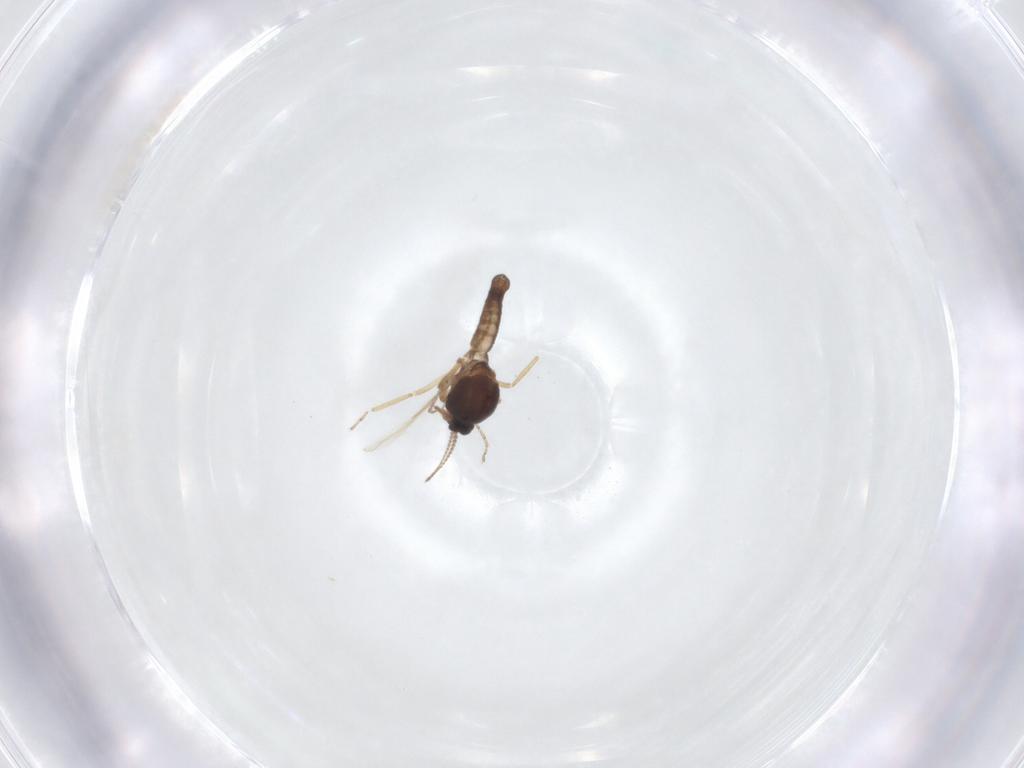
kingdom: Animalia
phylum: Arthropoda
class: Insecta
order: Diptera
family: Ceratopogonidae
